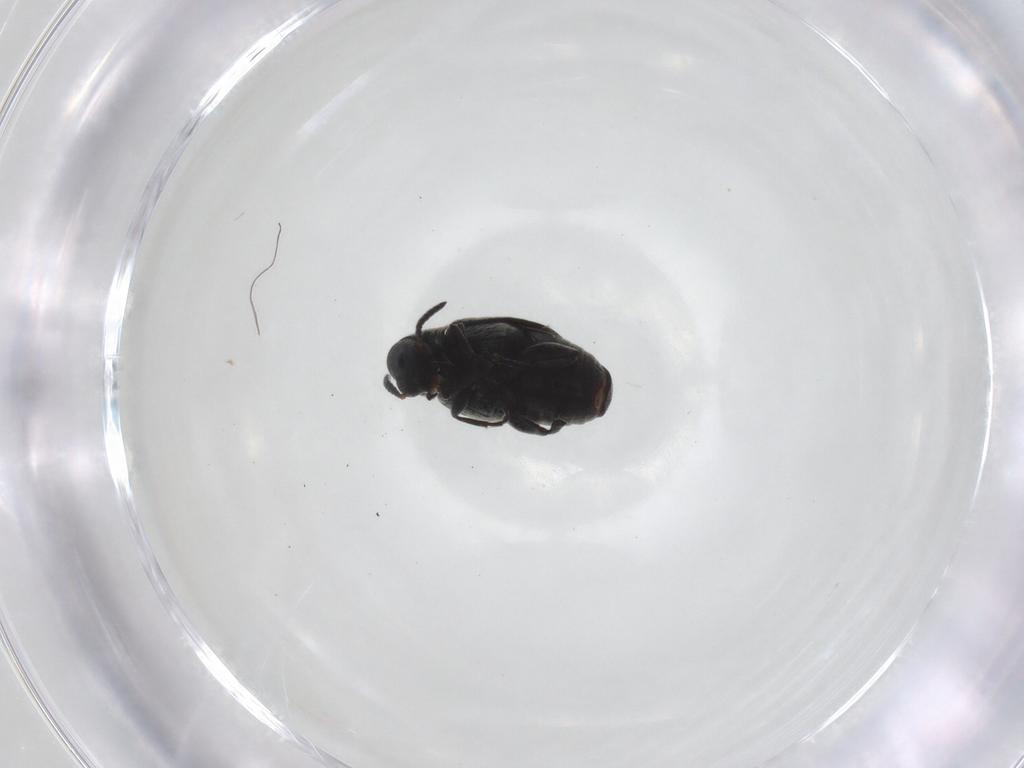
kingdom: Animalia
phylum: Arthropoda
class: Insecta
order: Coleoptera
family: Chrysomelidae
